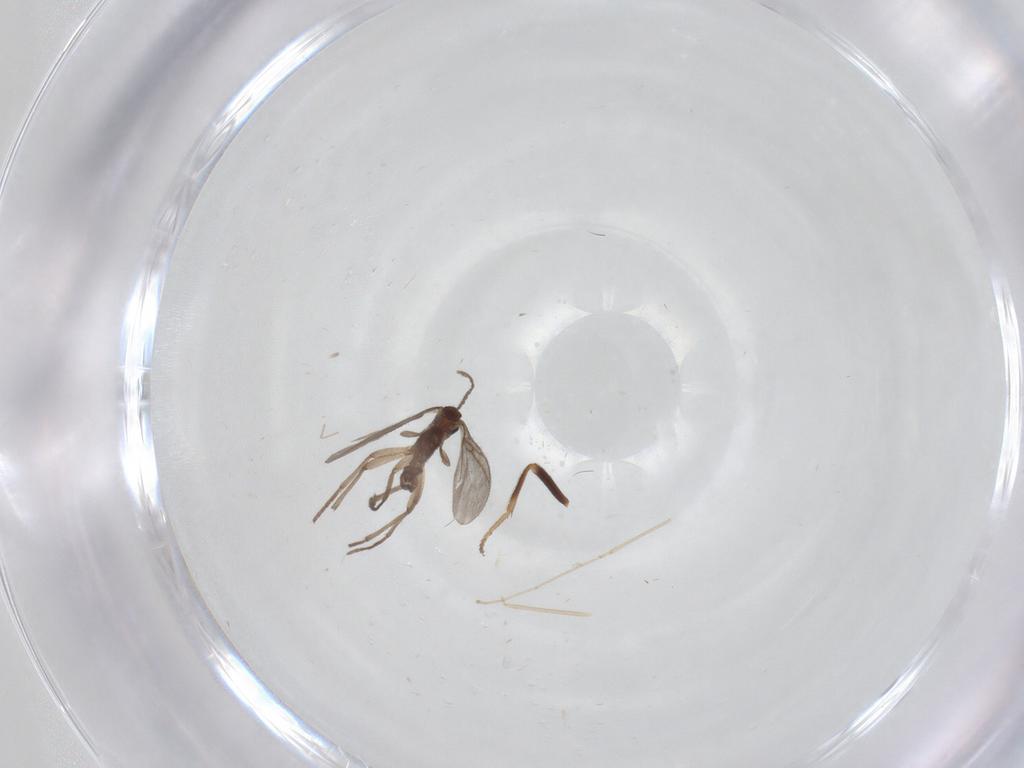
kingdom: Animalia
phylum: Arthropoda
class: Insecta
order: Diptera
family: Sciaridae
